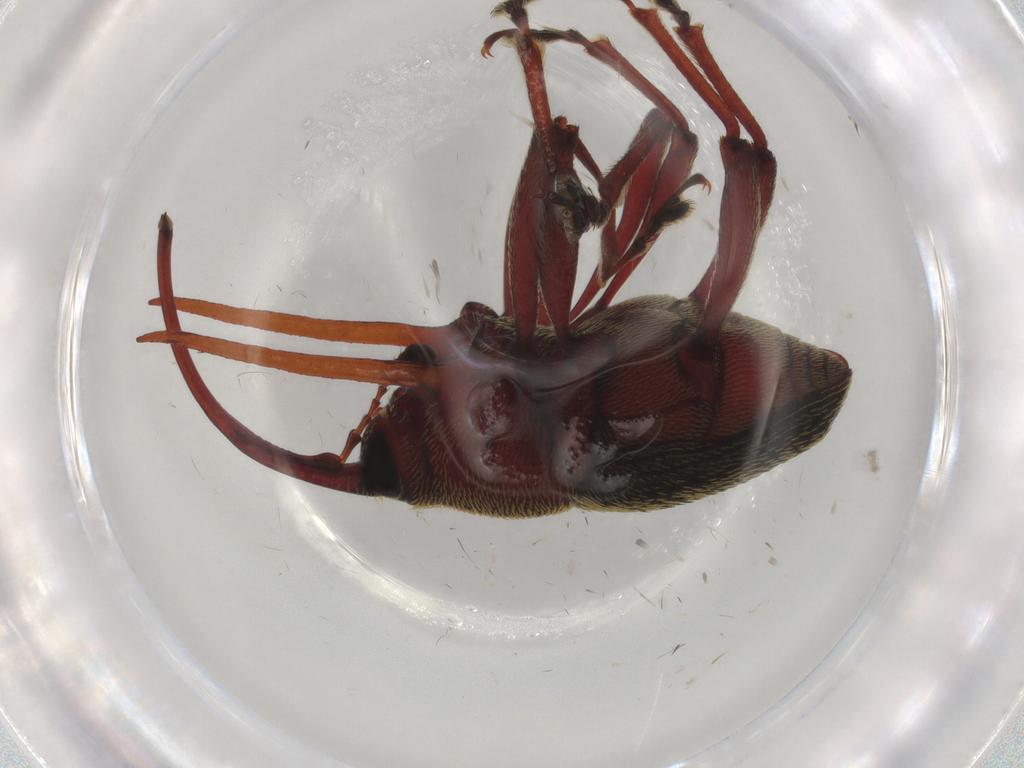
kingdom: Animalia
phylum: Arthropoda
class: Insecta
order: Coleoptera
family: Curculionidae
